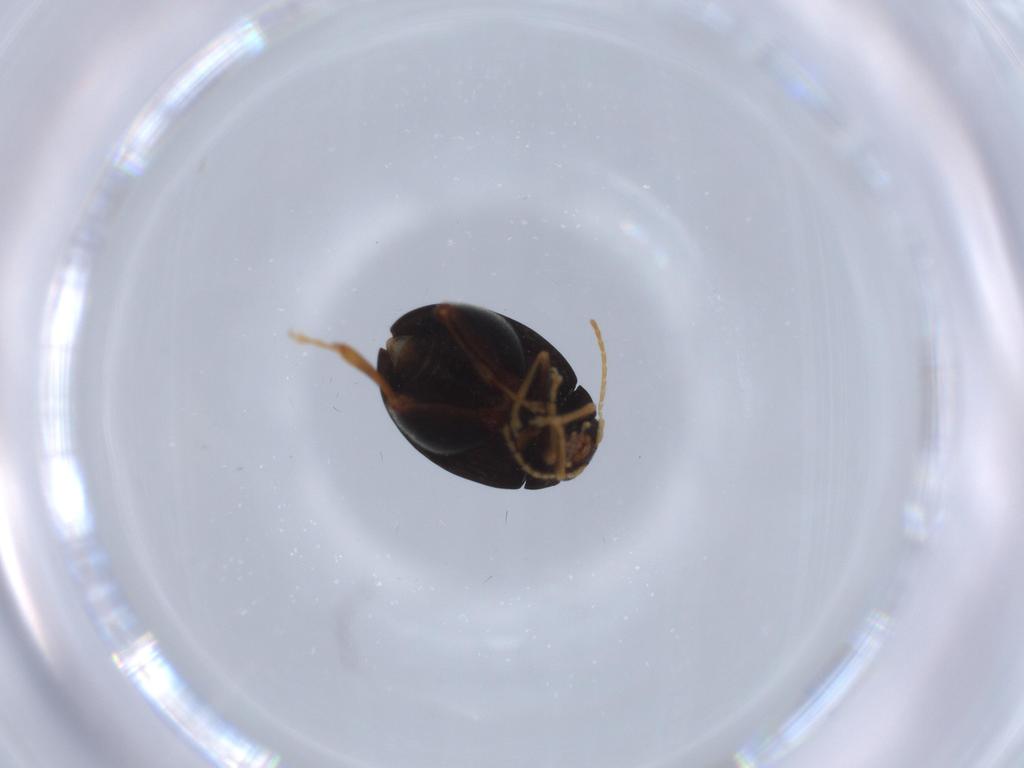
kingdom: Animalia
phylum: Arthropoda
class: Insecta
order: Coleoptera
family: Chrysomelidae
